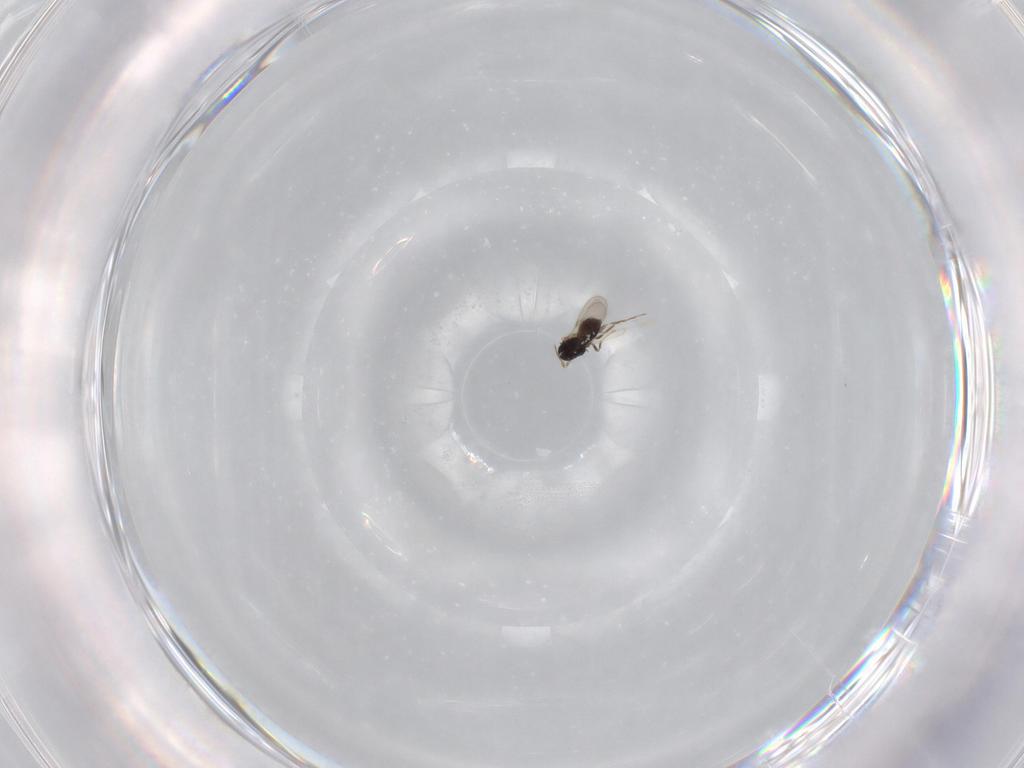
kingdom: Animalia
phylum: Arthropoda
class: Insecta
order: Hymenoptera
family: Scelionidae
